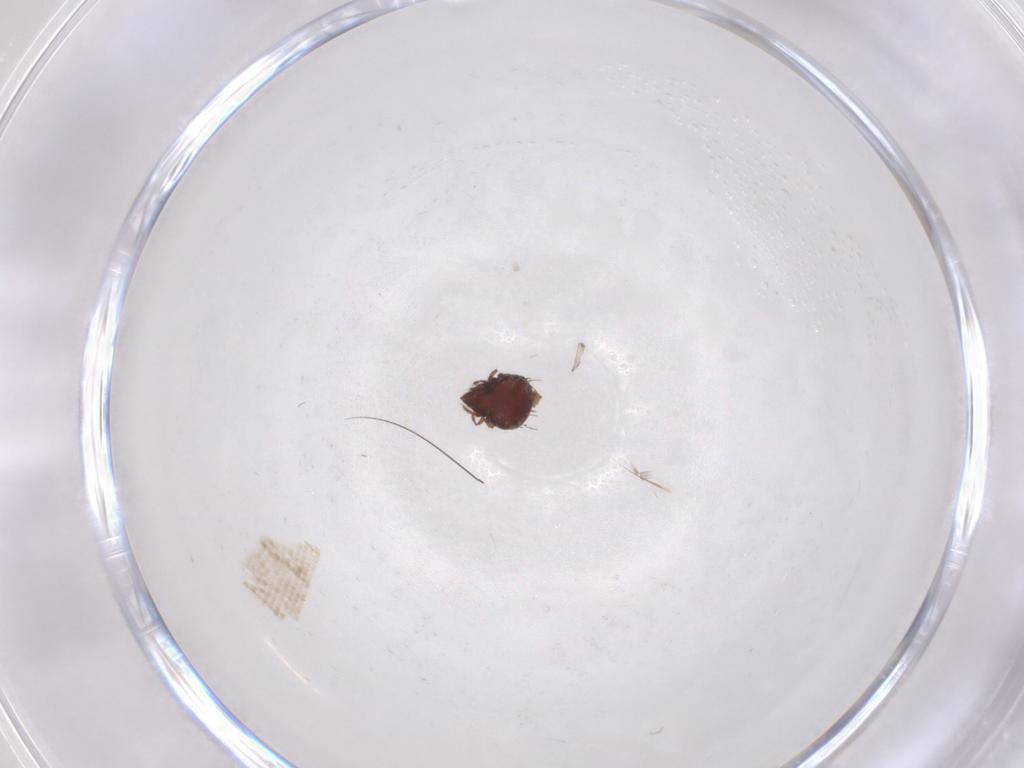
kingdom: Animalia
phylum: Arthropoda
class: Arachnida
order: Sarcoptiformes
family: Caloppiidae
